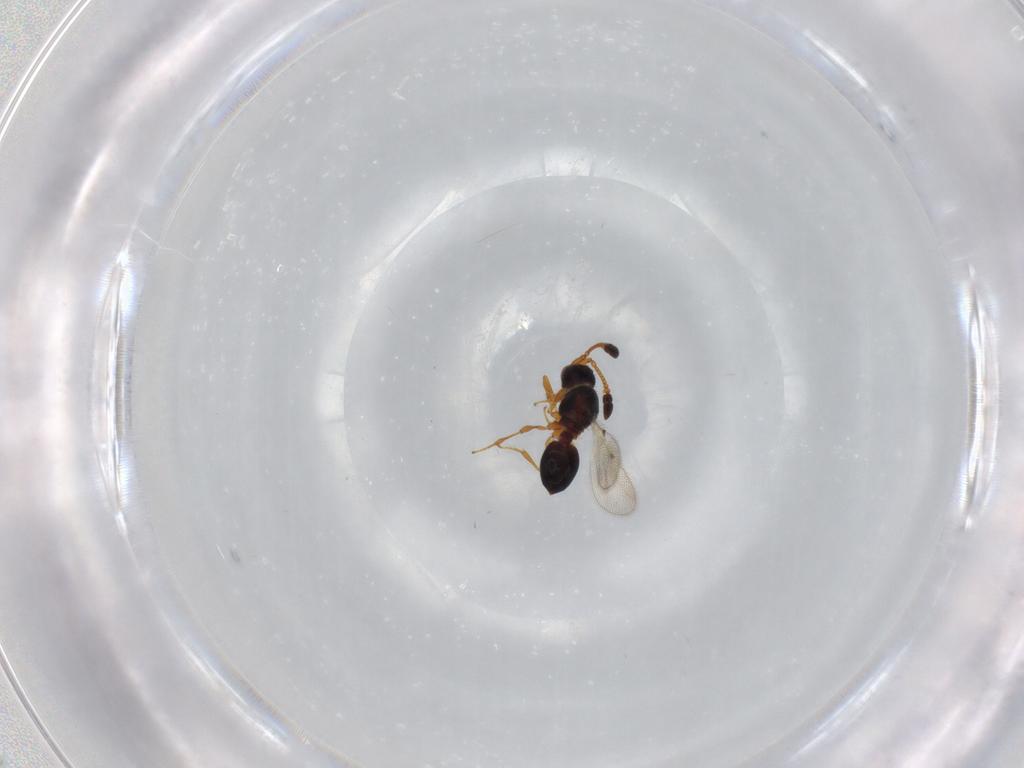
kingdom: Animalia
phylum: Arthropoda
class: Insecta
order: Hymenoptera
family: Diapriidae
